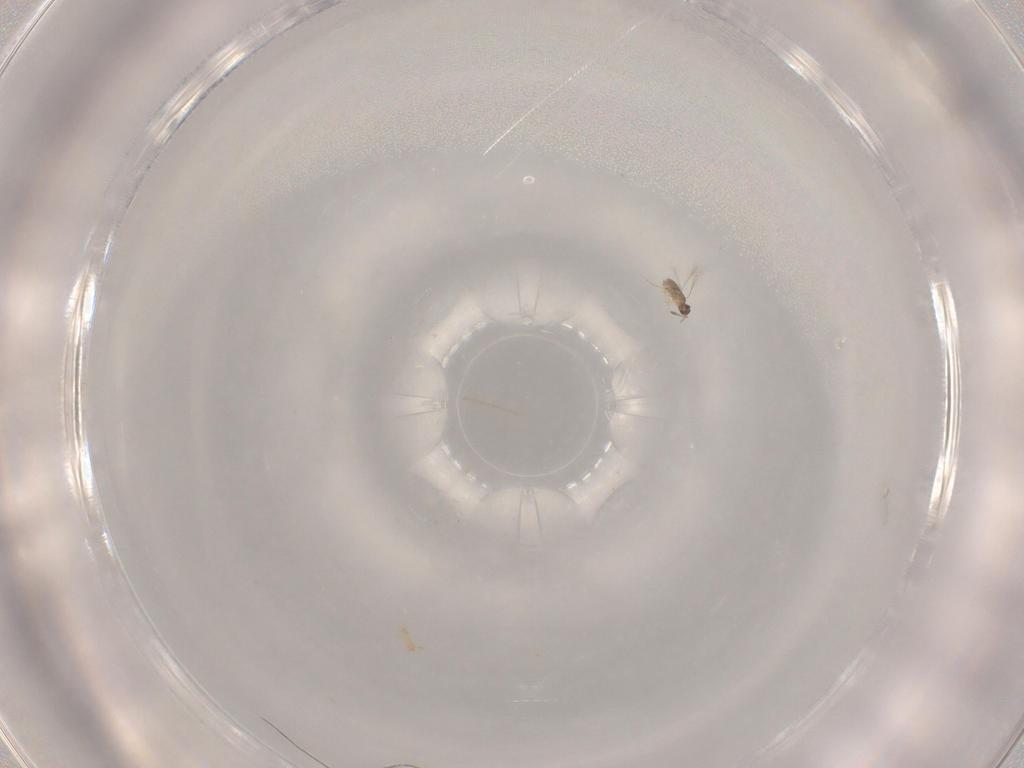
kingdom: Animalia
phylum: Arthropoda
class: Insecta
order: Hymenoptera
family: Mymaridae
